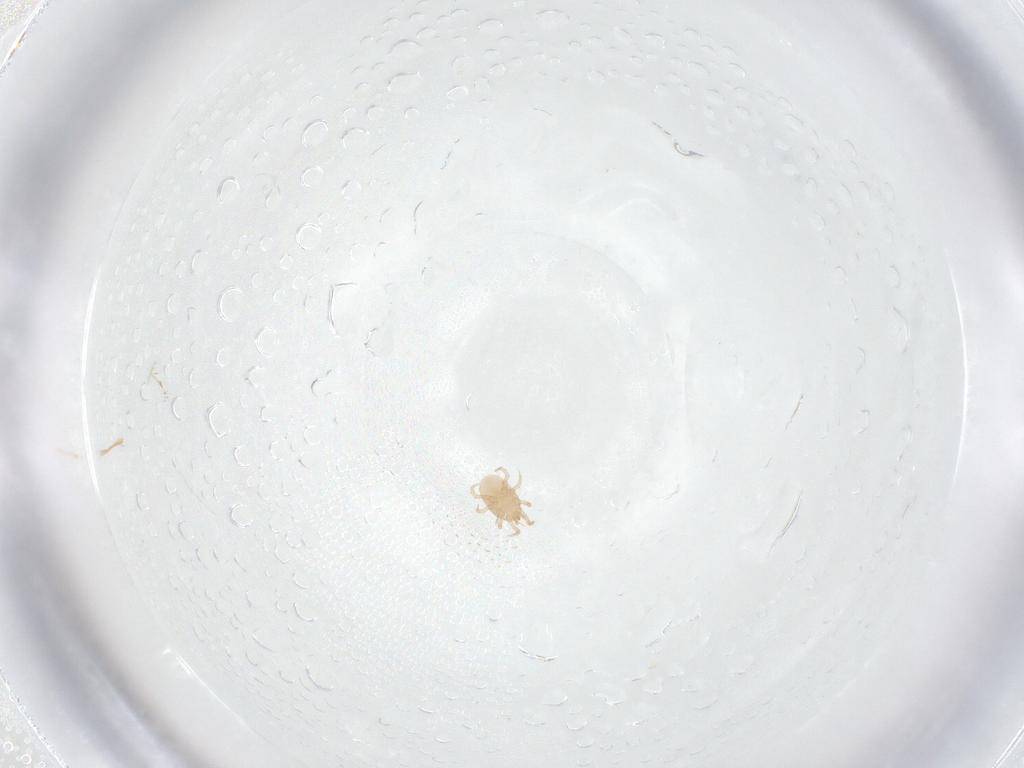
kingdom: Animalia
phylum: Arthropoda
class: Arachnida
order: Mesostigmata
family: Melicharidae
